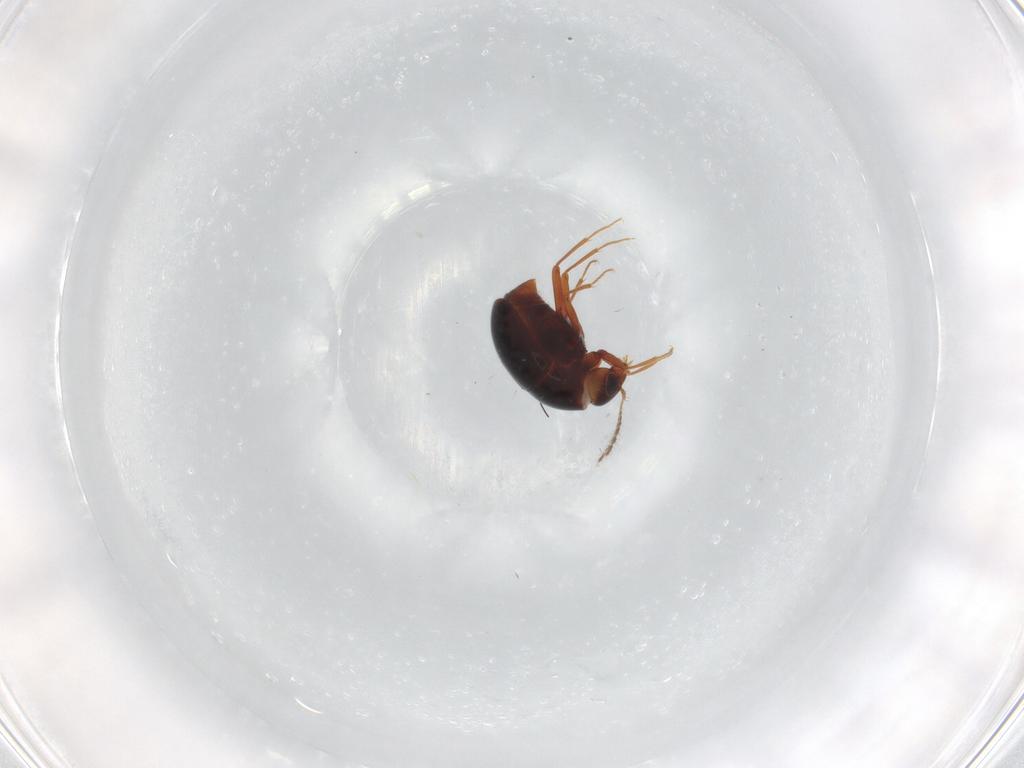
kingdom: Animalia
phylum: Arthropoda
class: Insecta
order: Coleoptera
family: Staphylinidae
